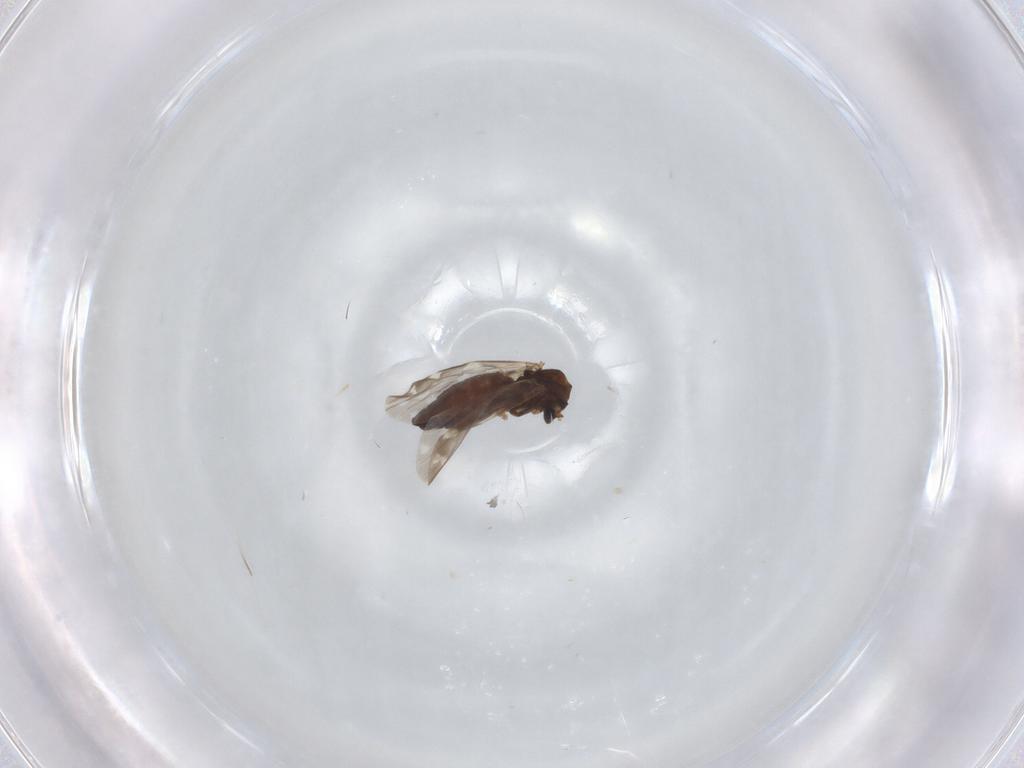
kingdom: Animalia
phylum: Arthropoda
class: Insecta
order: Diptera
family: Ceratopogonidae
